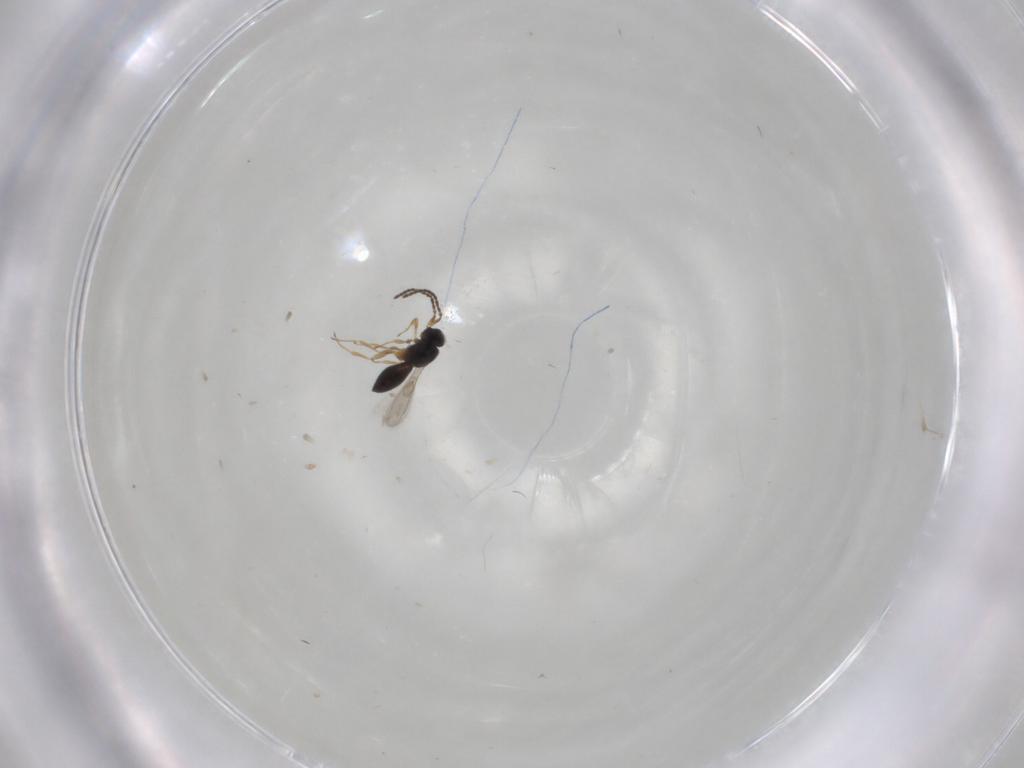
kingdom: Animalia
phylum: Arthropoda
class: Insecta
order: Hymenoptera
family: Scelionidae
